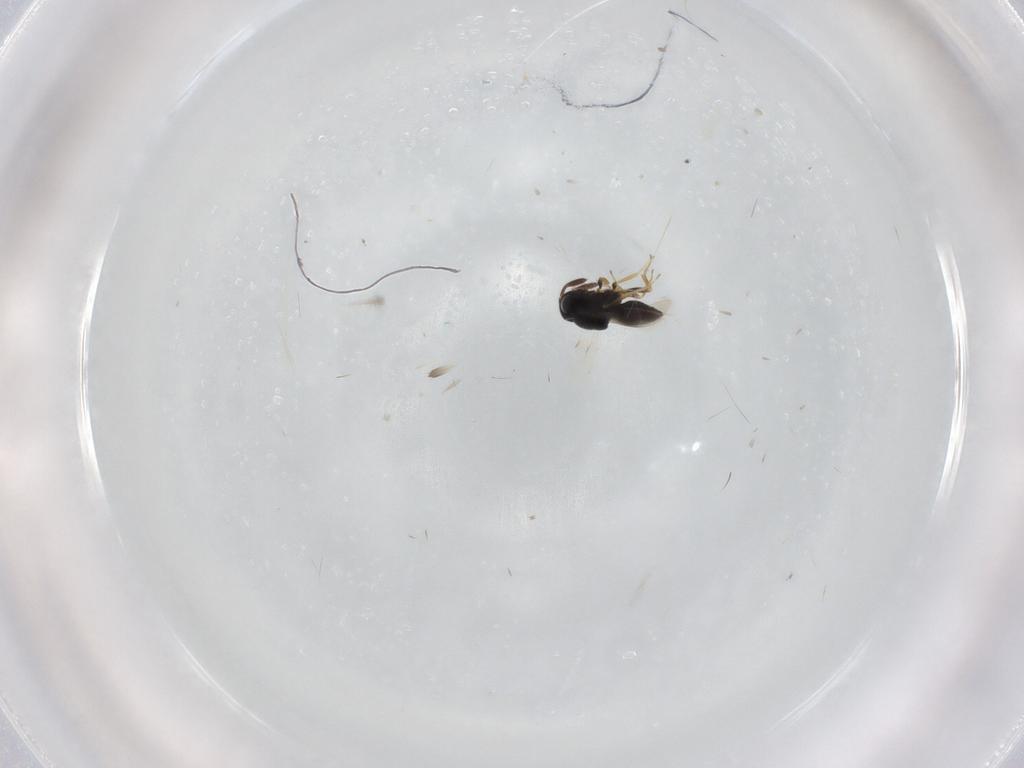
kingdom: Animalia
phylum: Arthropoda
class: Insecta
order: Hymenoptera
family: Scelionidae
